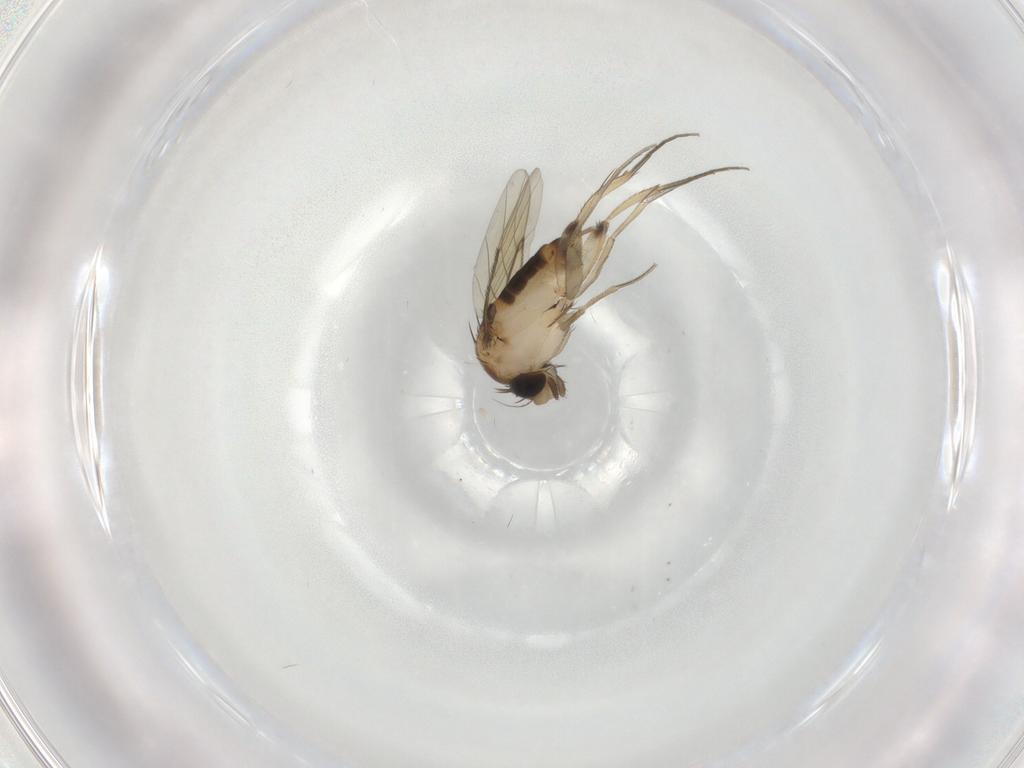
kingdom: Animalia
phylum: Arthropoda
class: Insecta
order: Diptera
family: Phoridae
